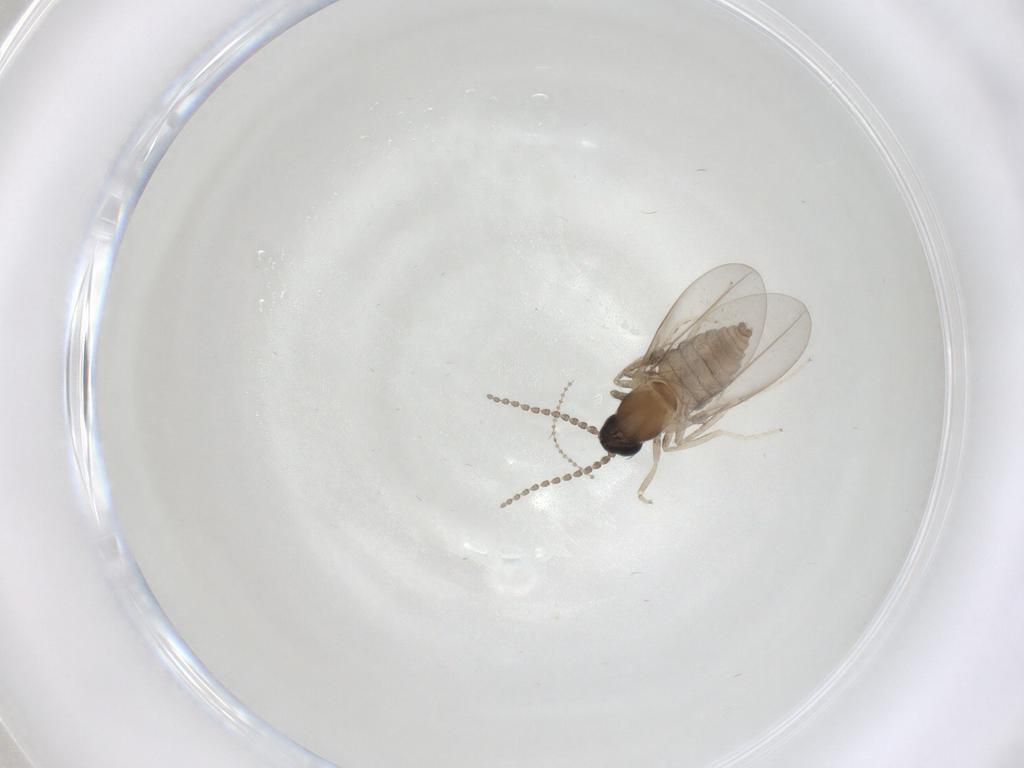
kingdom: Animalia
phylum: Arthropoda
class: Insecta
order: Diptera
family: Cecidomyiidae
